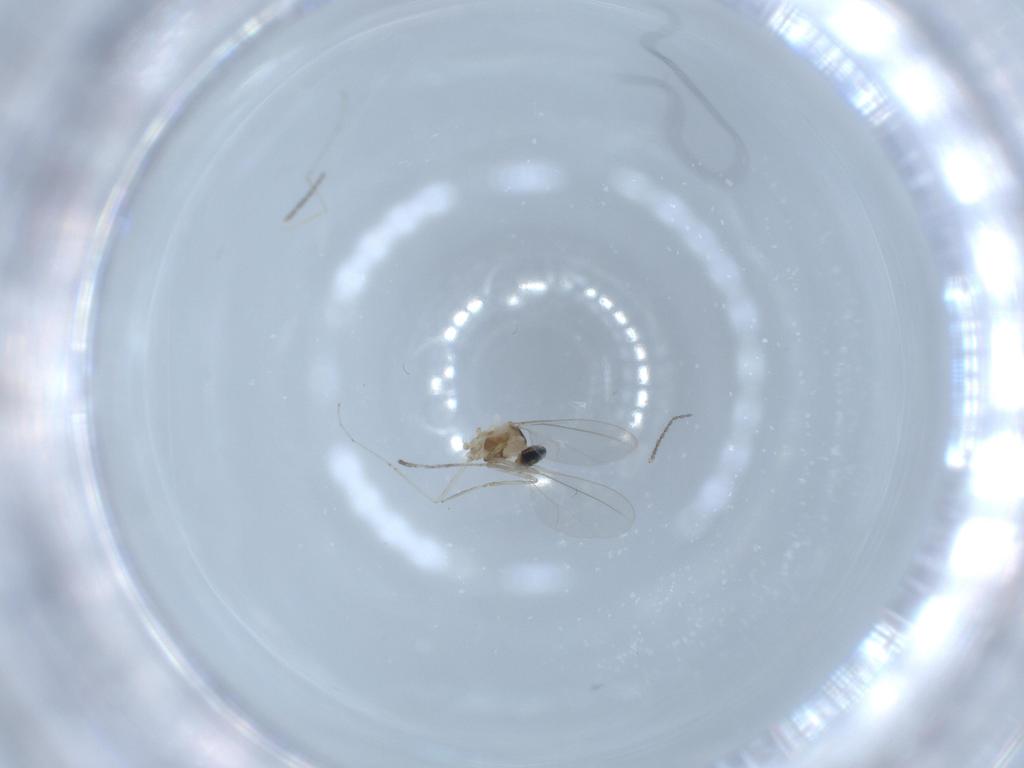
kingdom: Animalia
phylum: Arthropoda
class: Insecta
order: Diptera
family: Cecidomyiidae
